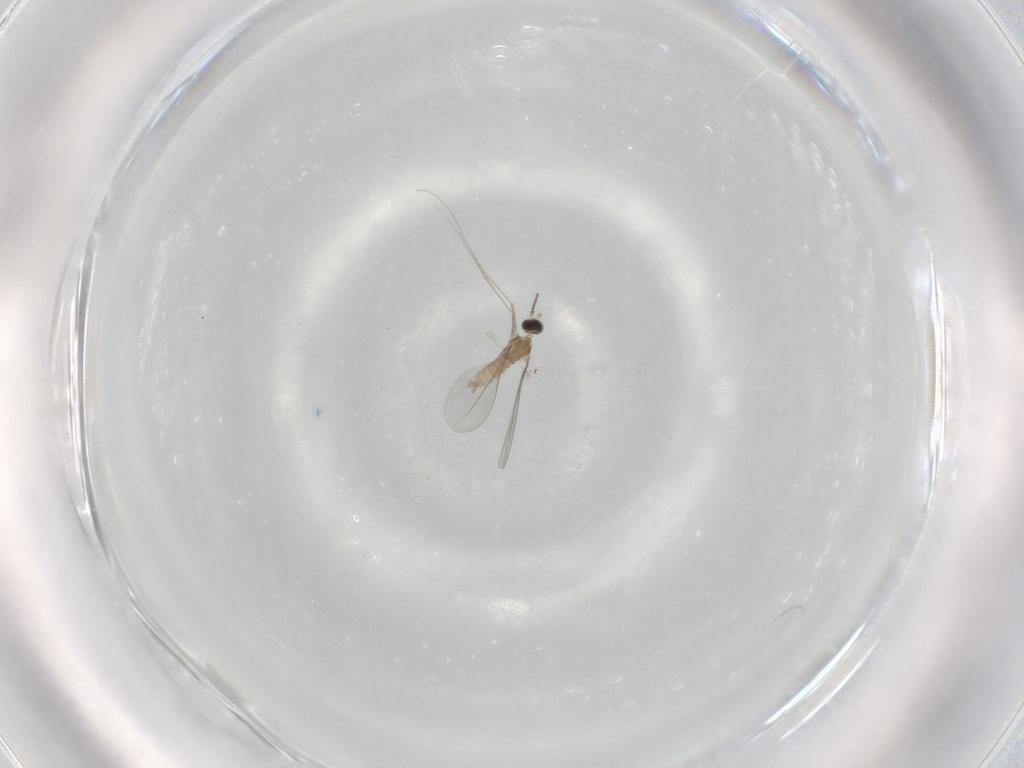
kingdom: Animalia
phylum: Arthropoda
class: Insecta
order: Diptera
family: Cecidomyiidae
